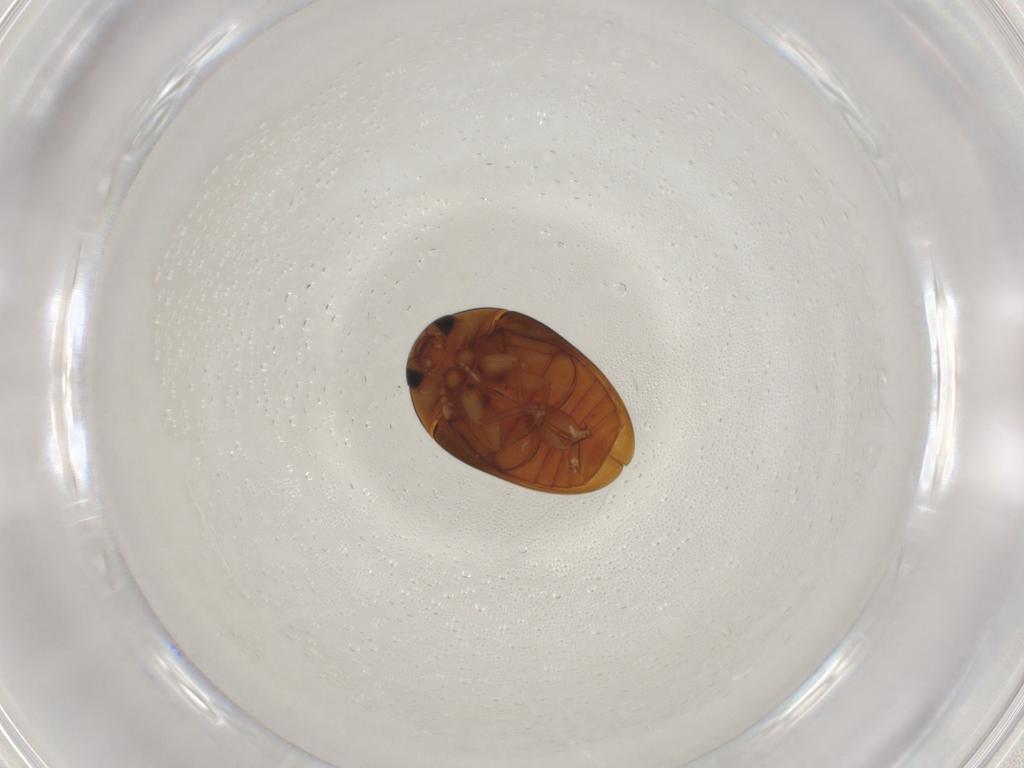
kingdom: Animalia
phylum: Arthropoda
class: Insecta
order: Coleoptera
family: Phalacridae
